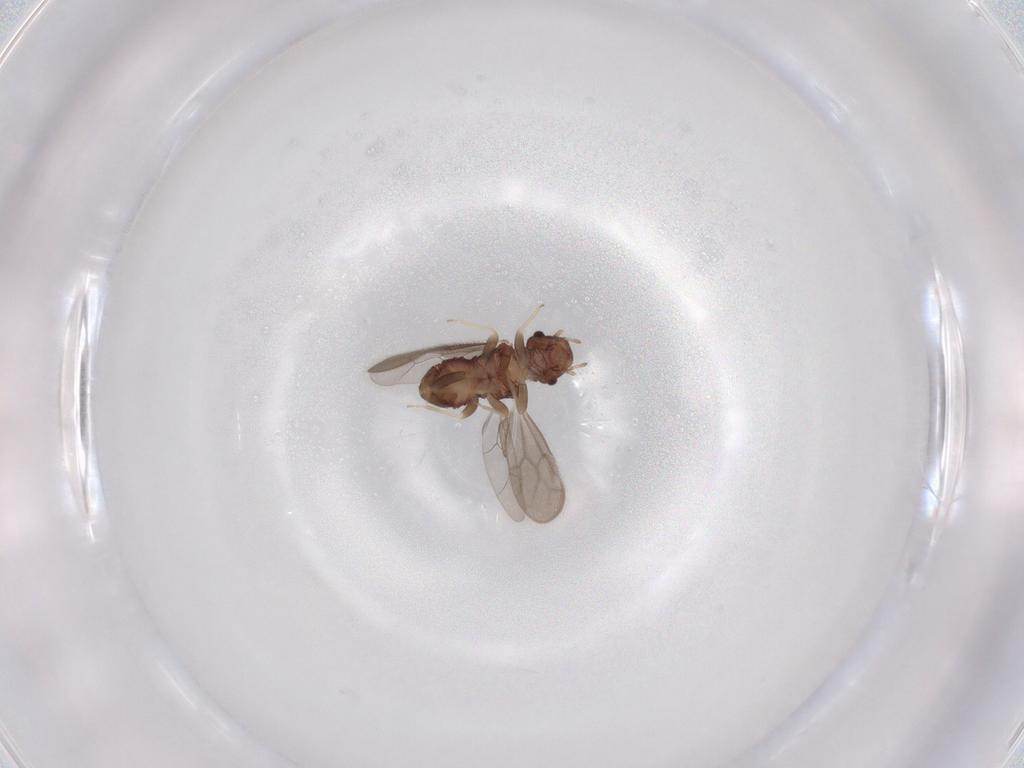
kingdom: Animalia
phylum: Arthropoda
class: Insecta
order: Psocodea
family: Archipsocidae
